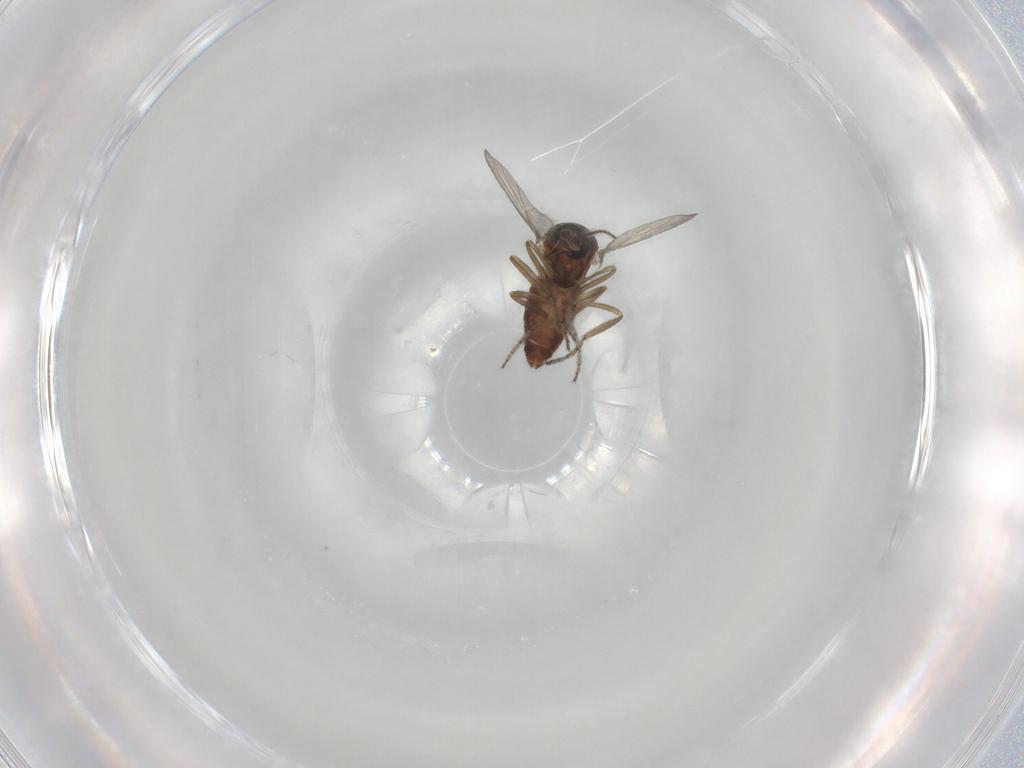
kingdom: Animalia
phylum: Arthropoda
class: Insecta
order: Diptera
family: Ceratopogonidae
